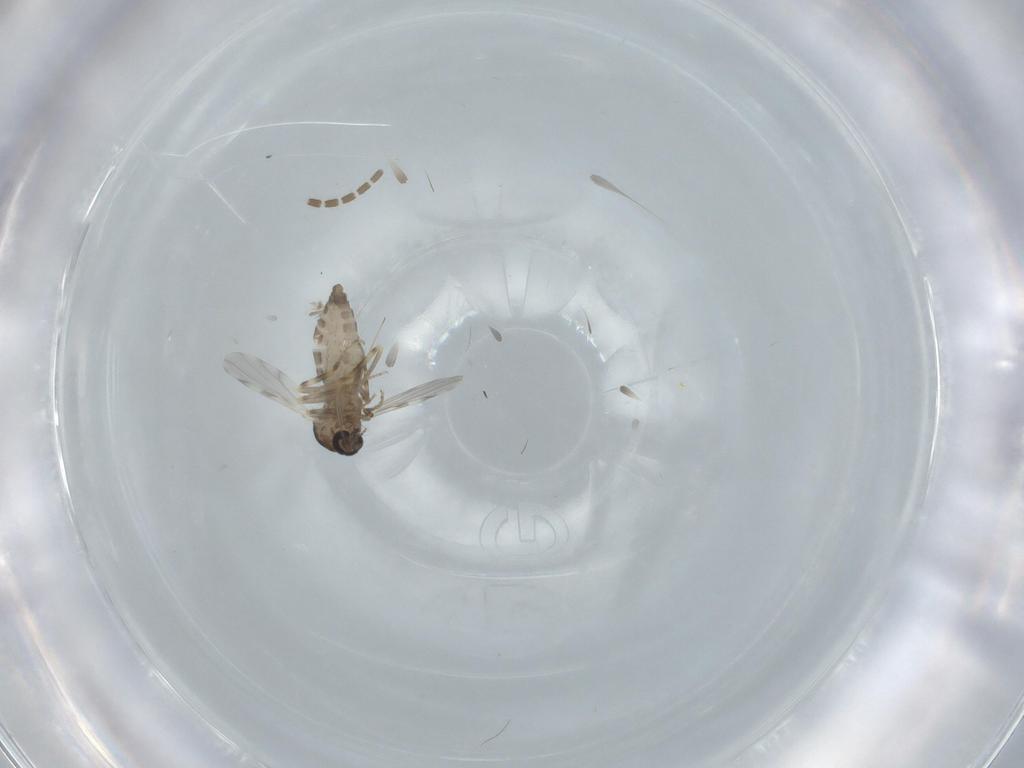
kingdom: Animalia
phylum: Arthropoda
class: Insecta
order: Diptera
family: Ceratopogonidae
